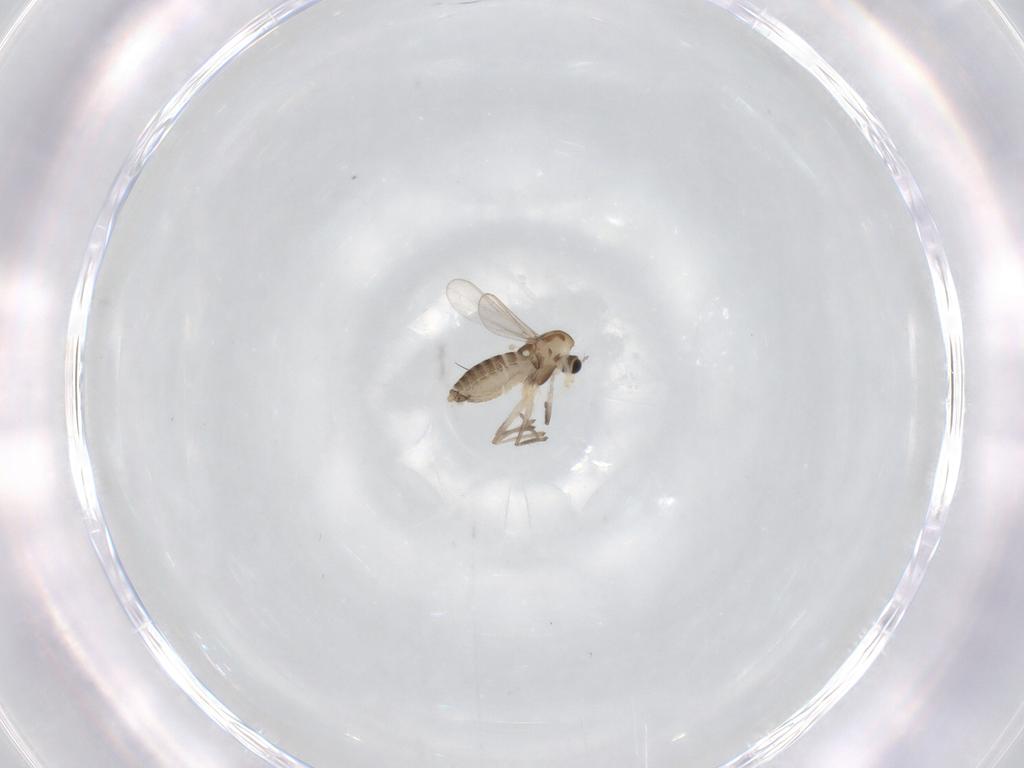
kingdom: Animalia
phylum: Arthropoda
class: Insecta
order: Diptera
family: Chironomidae
